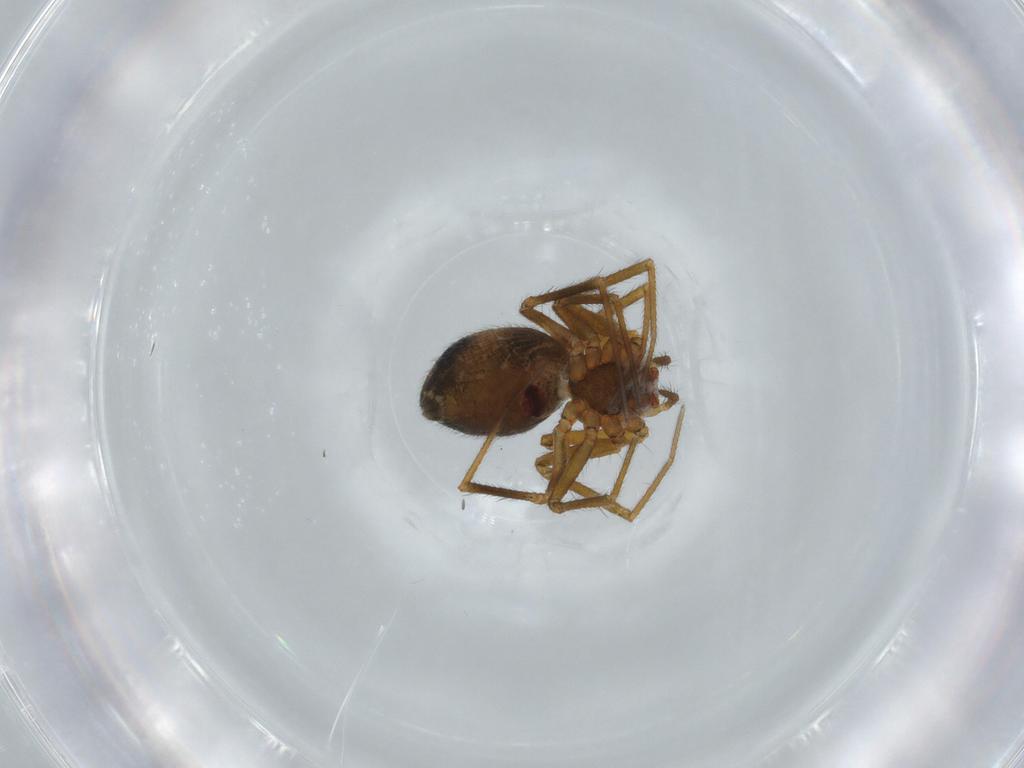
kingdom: Animalia
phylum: Arthropoda
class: Arachnida
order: Araneae
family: Linyphiidae
